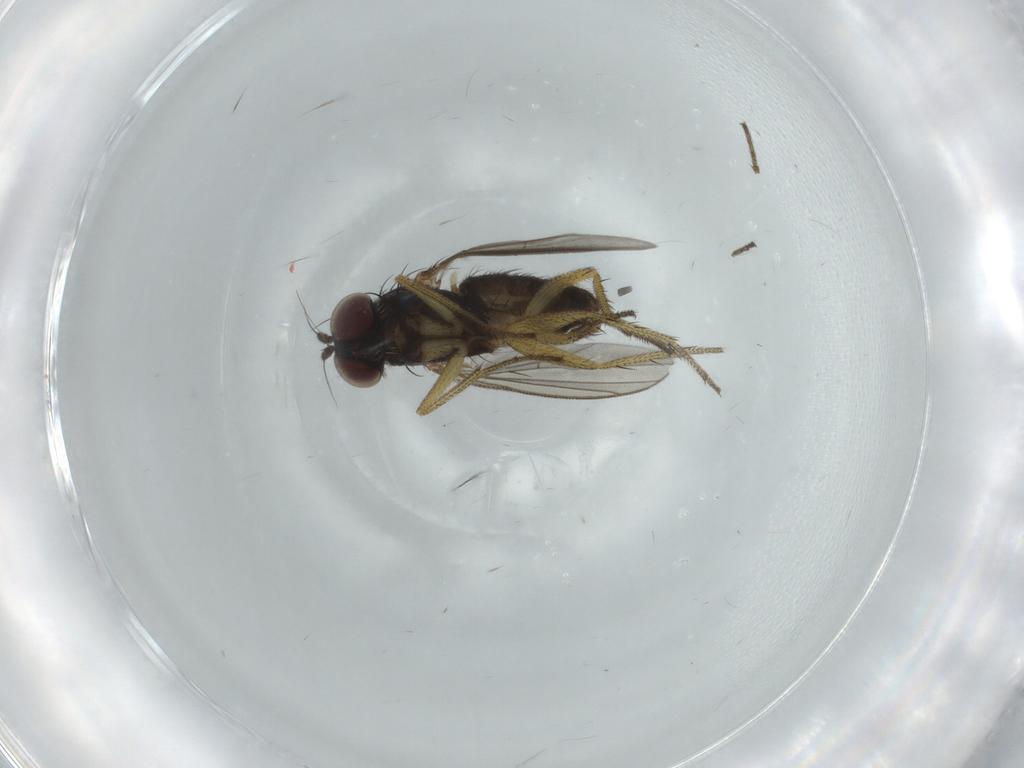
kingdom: Animalia
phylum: Arthropoda
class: Insecta
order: Diptera
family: Dolichopodidae
